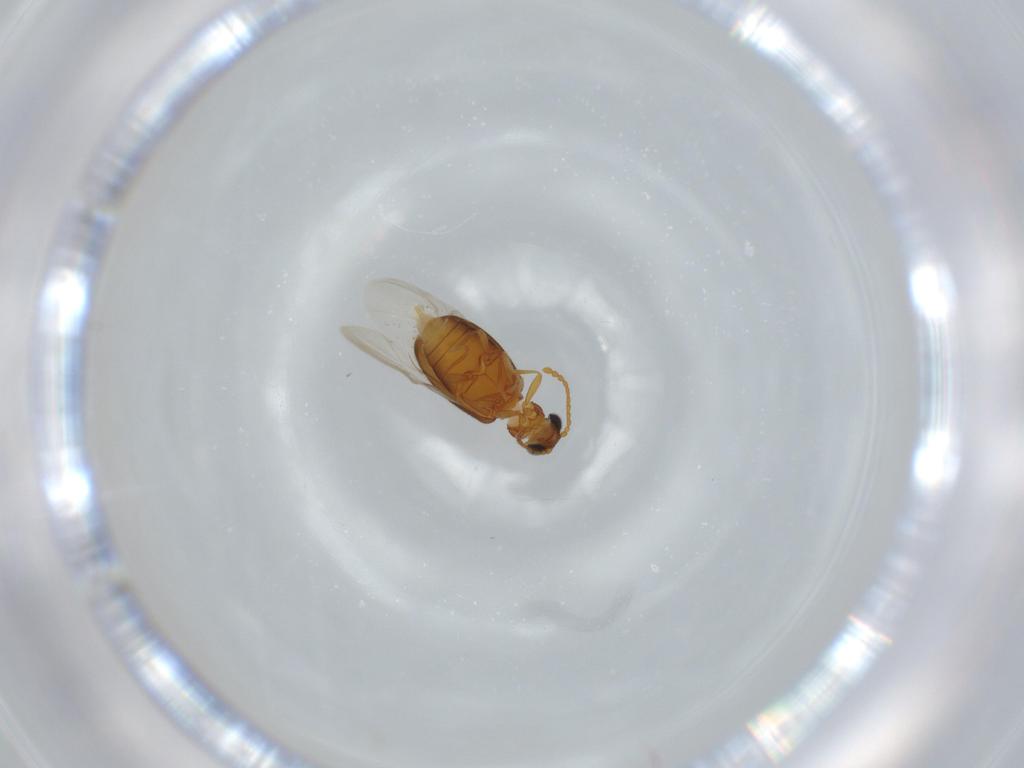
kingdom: Animalia
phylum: Arthropoda
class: Insecta
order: Coleoptera
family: Aderidae
